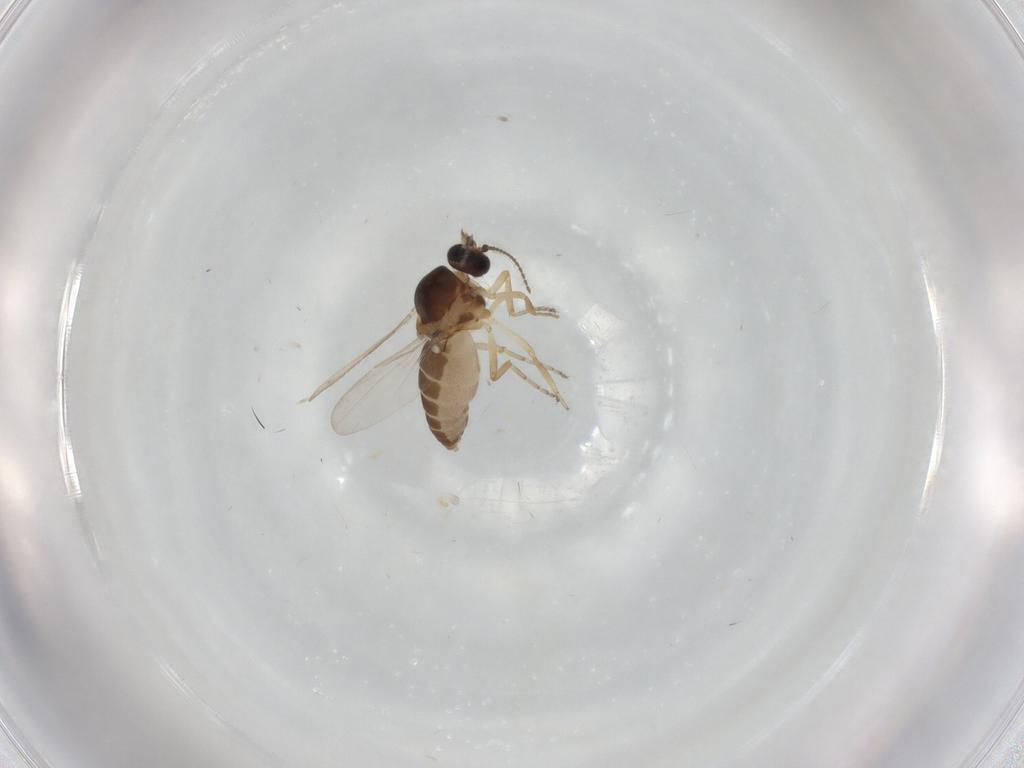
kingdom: Animalia
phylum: Arthropoda
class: Insecta
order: Diptera
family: Ceratopogonidae
